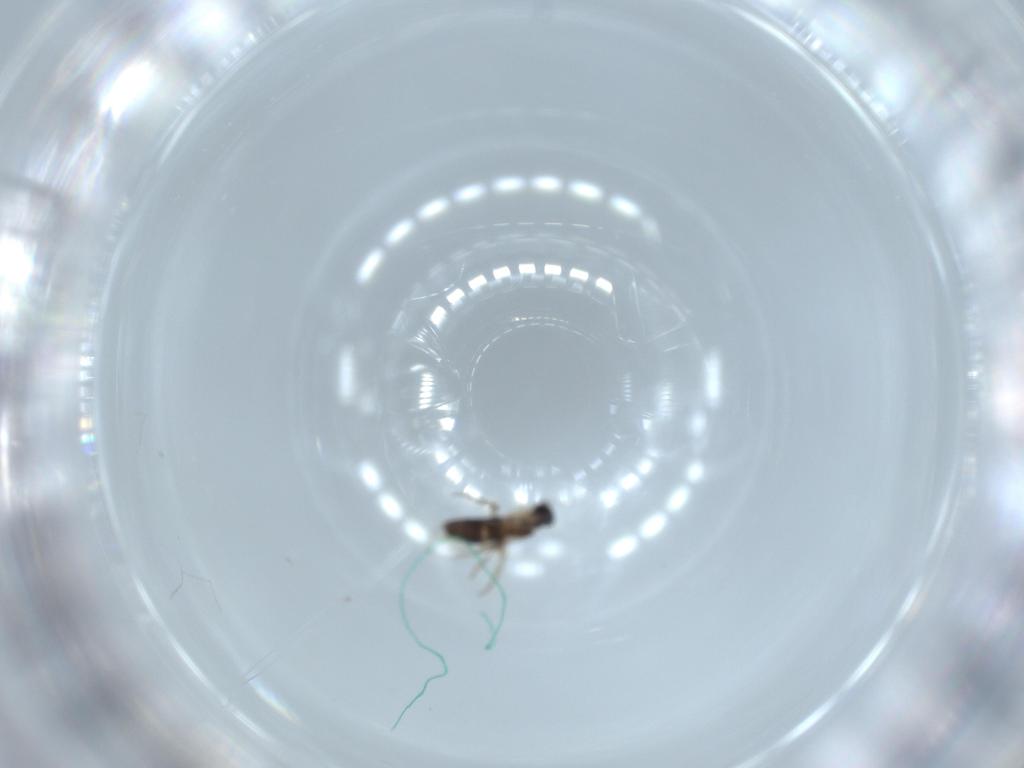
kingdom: Animalia
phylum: Arthropoda
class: Insecta
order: Diptera
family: Phoridae
